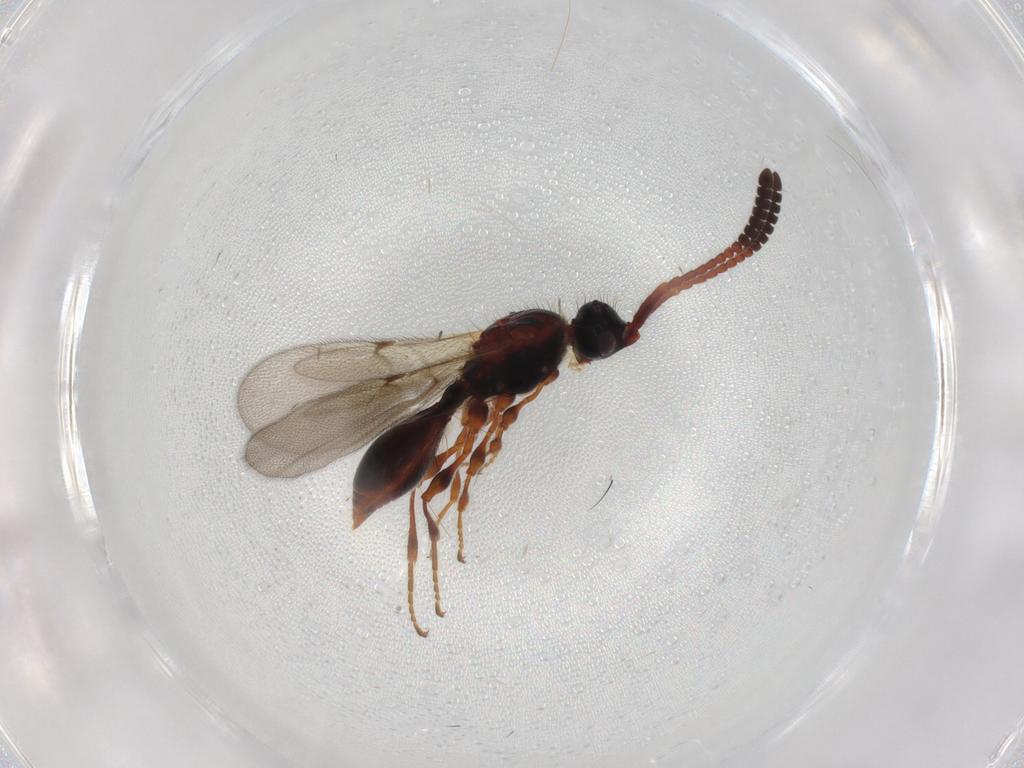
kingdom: Animalia
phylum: Arthropoda
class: Insecta
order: Hymenoptera
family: Diapriidae
